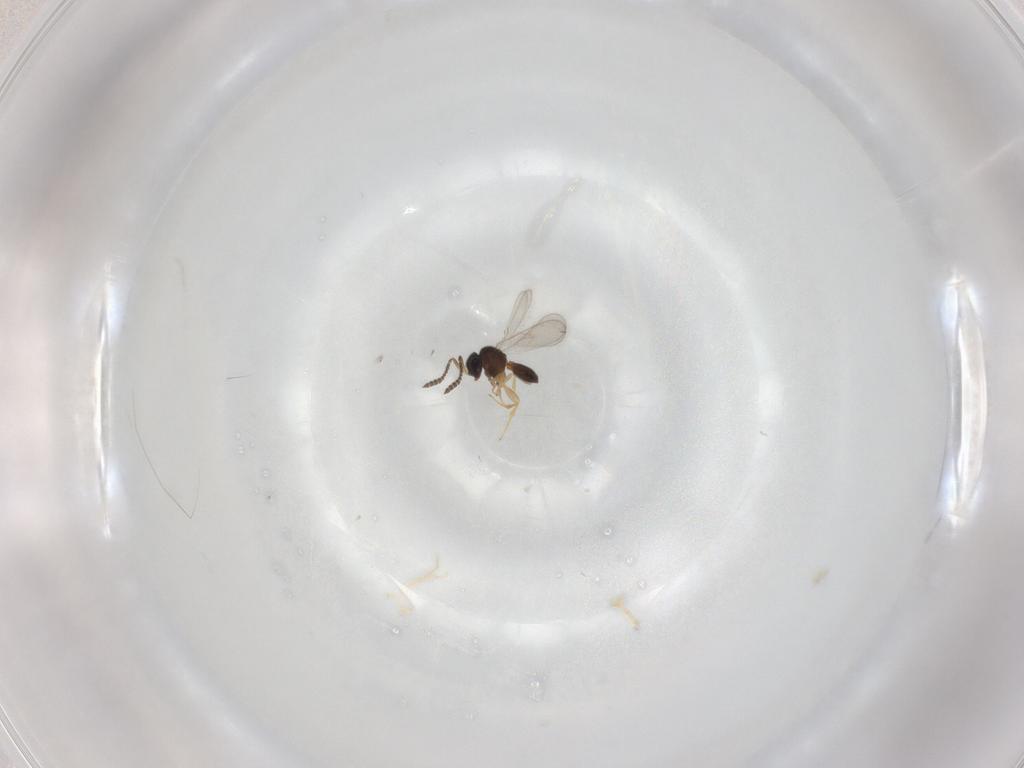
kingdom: Animalia
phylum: Arthropoda
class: Insecta
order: Hymenoptera
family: Scelionidae
